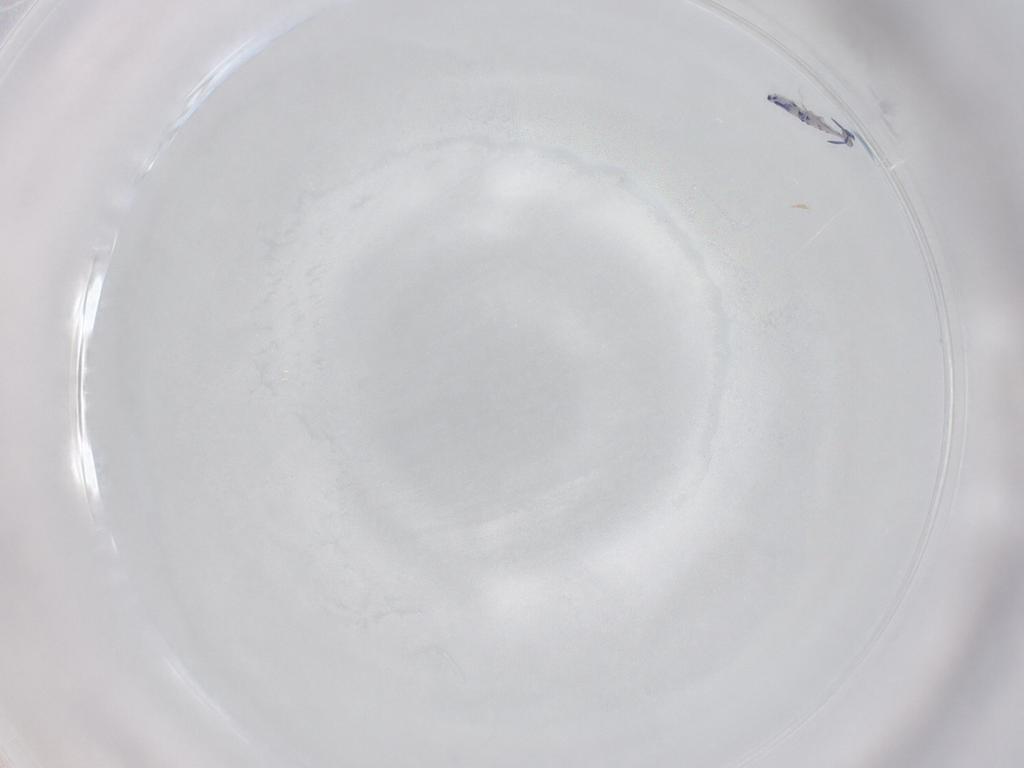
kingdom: Animalia
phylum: Arthropoda
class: Collembola
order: Entomobryomorpha
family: Entomobryidae
